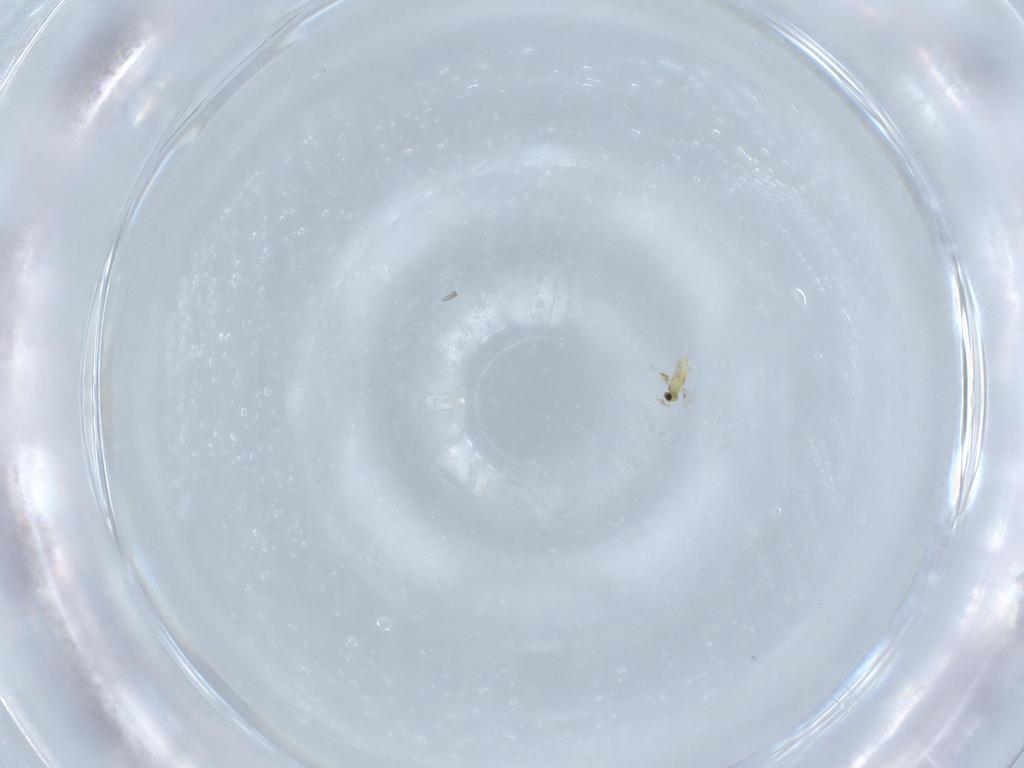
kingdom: Animalia
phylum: Arthropoda
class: Insecta
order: Hymenoptera
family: Trichogrammatidae
